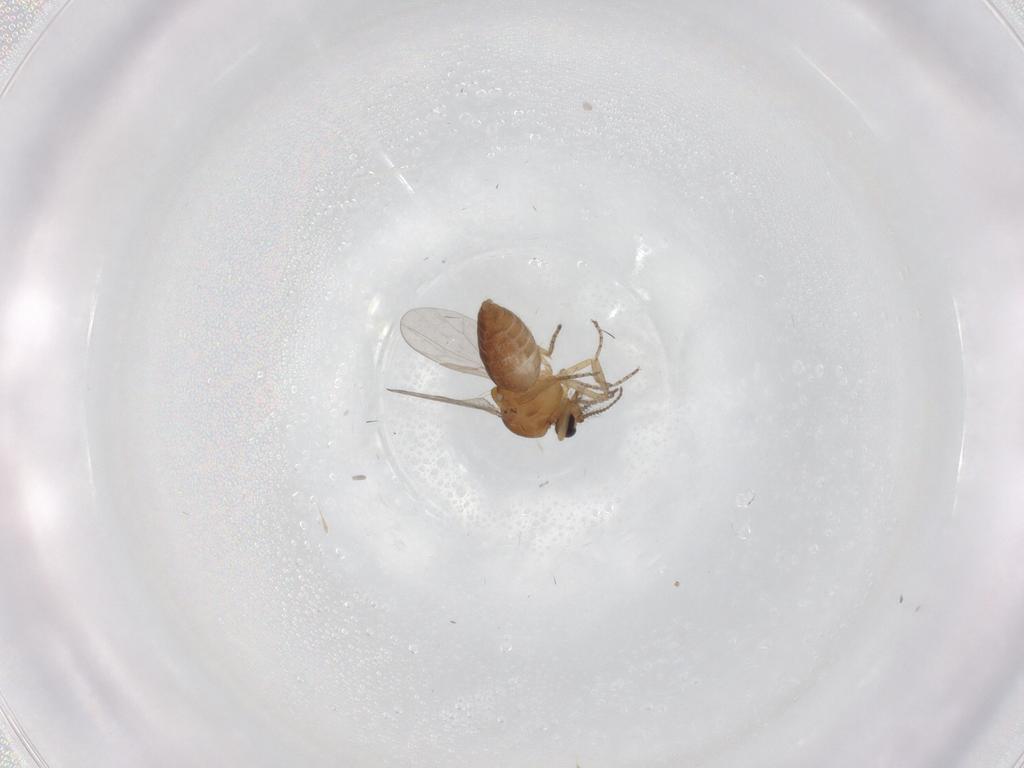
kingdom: Animalia
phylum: Arthropoda
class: Insecta
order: Diptera
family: Ceratopogonidae
